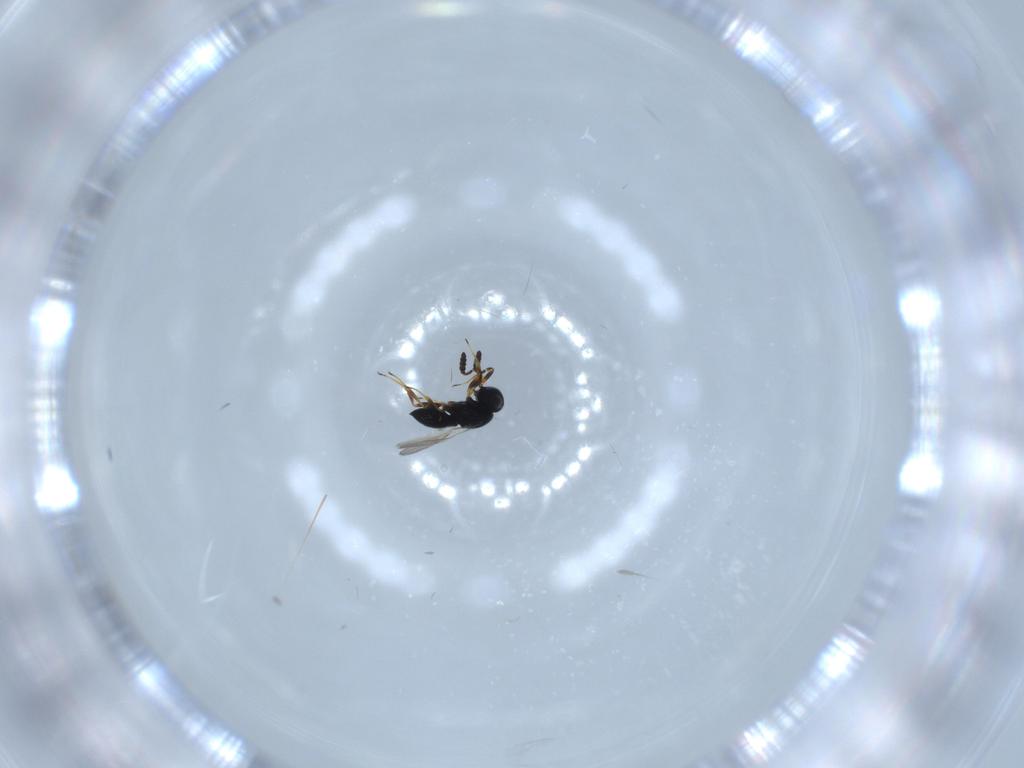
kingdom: Animalia
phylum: Arthropoda
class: Insecta
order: Hymenoptera
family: Scelionidae
